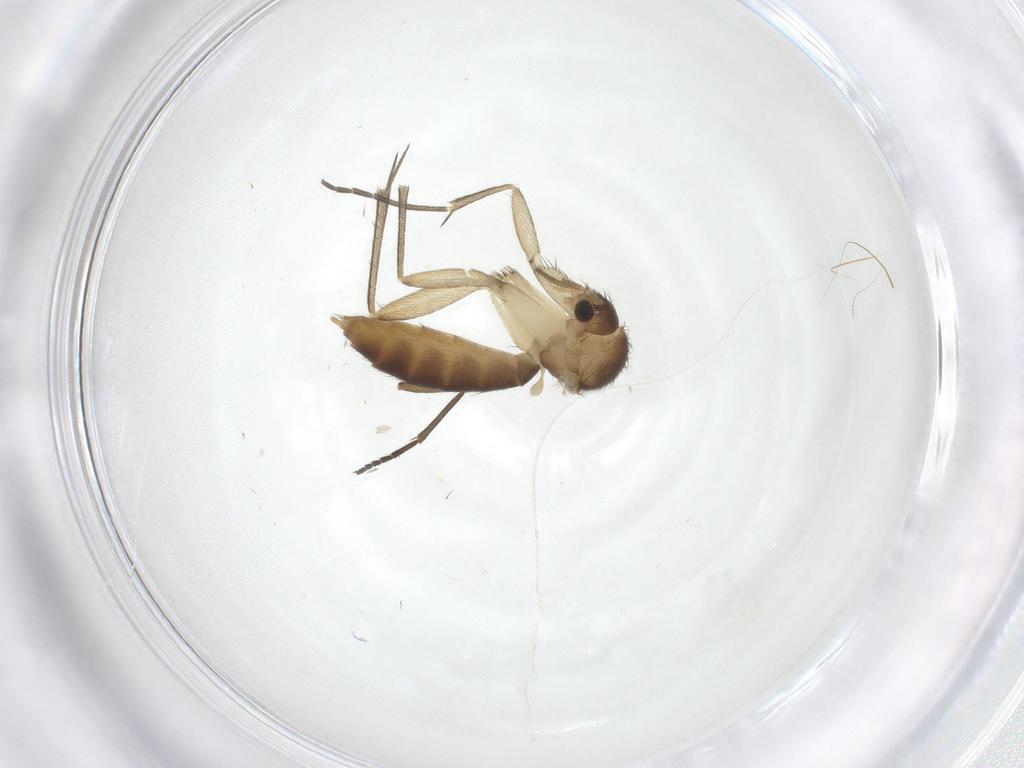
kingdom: Animalia
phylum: Arthropoda
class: Insecta
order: Diptera
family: Mycetophilidae
